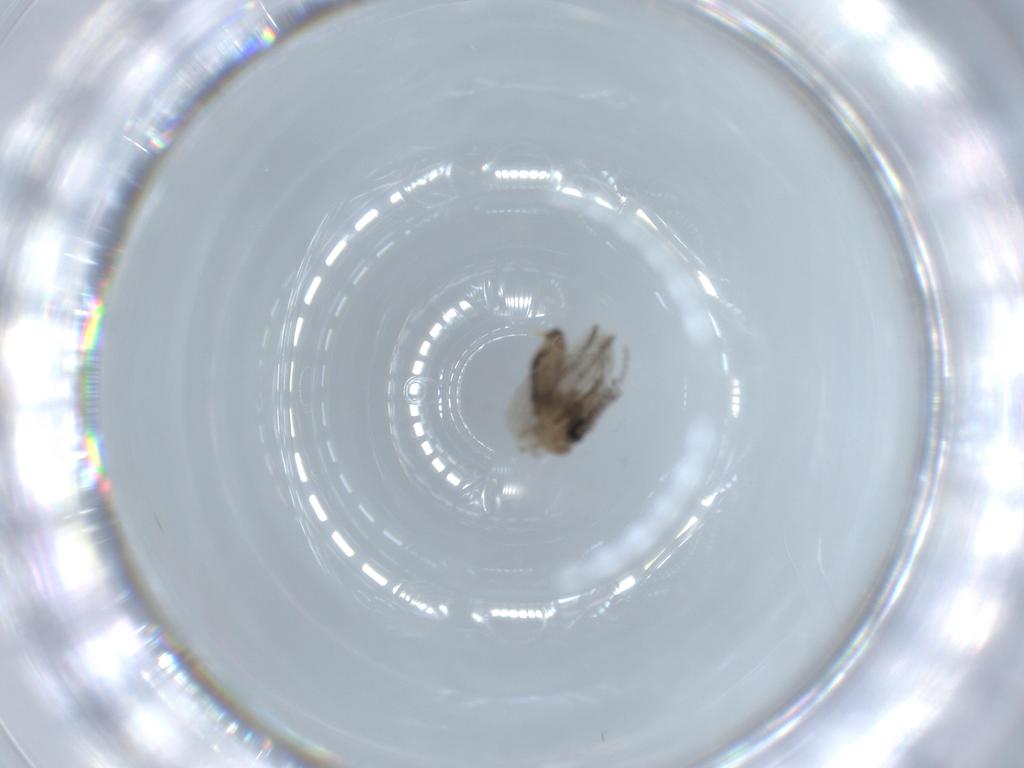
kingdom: Animalia
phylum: Arthropoda
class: Insecta
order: Diptera
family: Psychodidae
